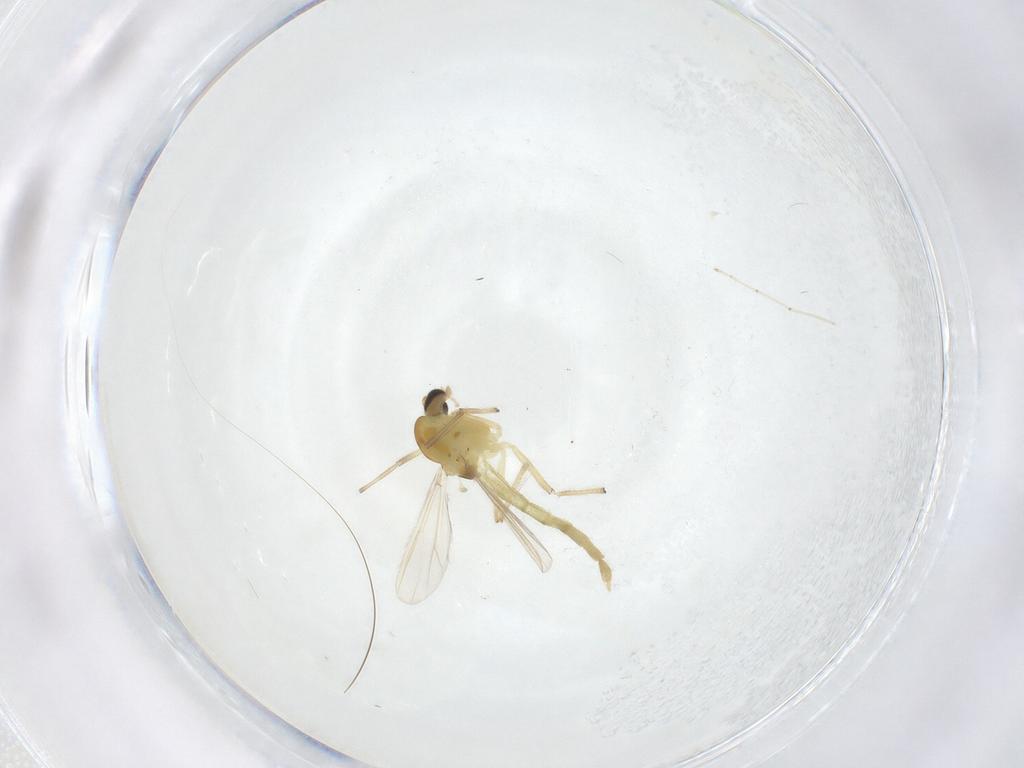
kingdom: Animalia
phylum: Arthropoda
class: Insecta
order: Diptera
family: Chironomidae
